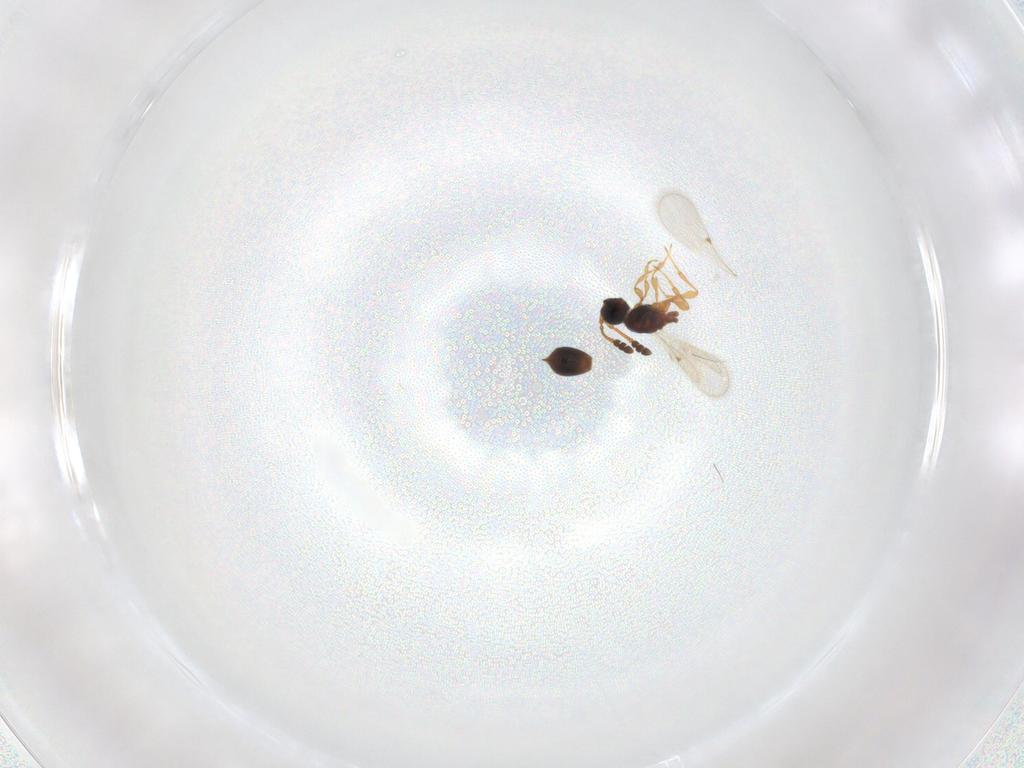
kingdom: Animalia
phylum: Arthropoda
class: Insecta
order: Hymenoptera
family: Diapriidae
